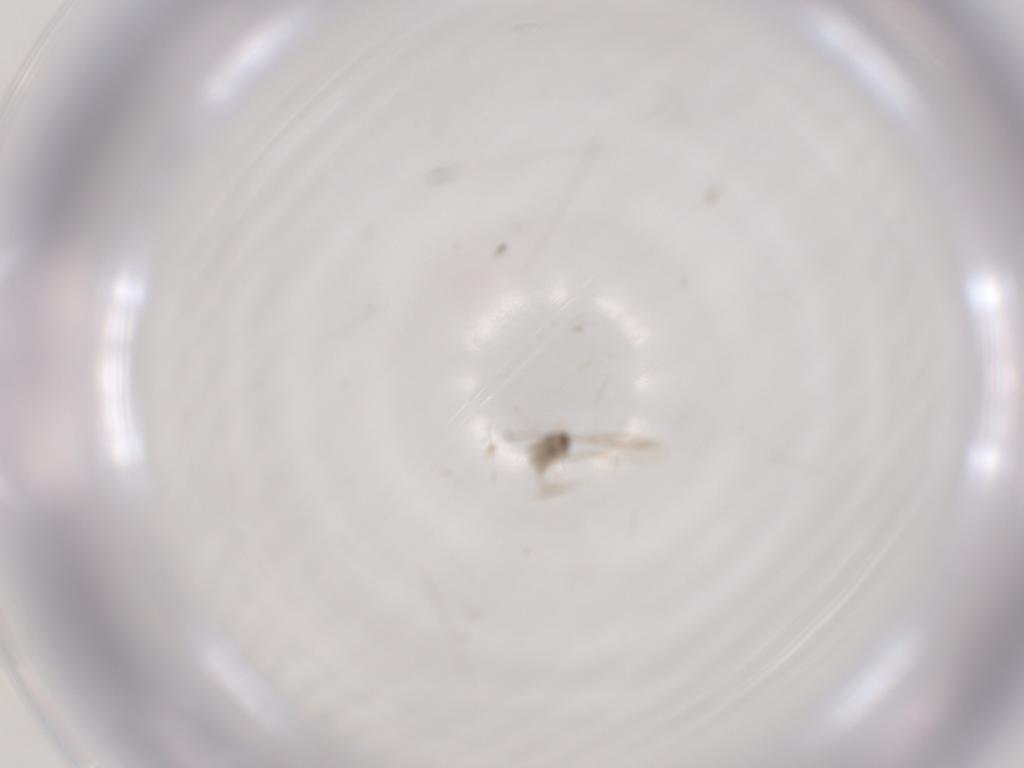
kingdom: Animalia
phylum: Arthropoda
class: Insecta
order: Diptera
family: Cecidomyiidae
